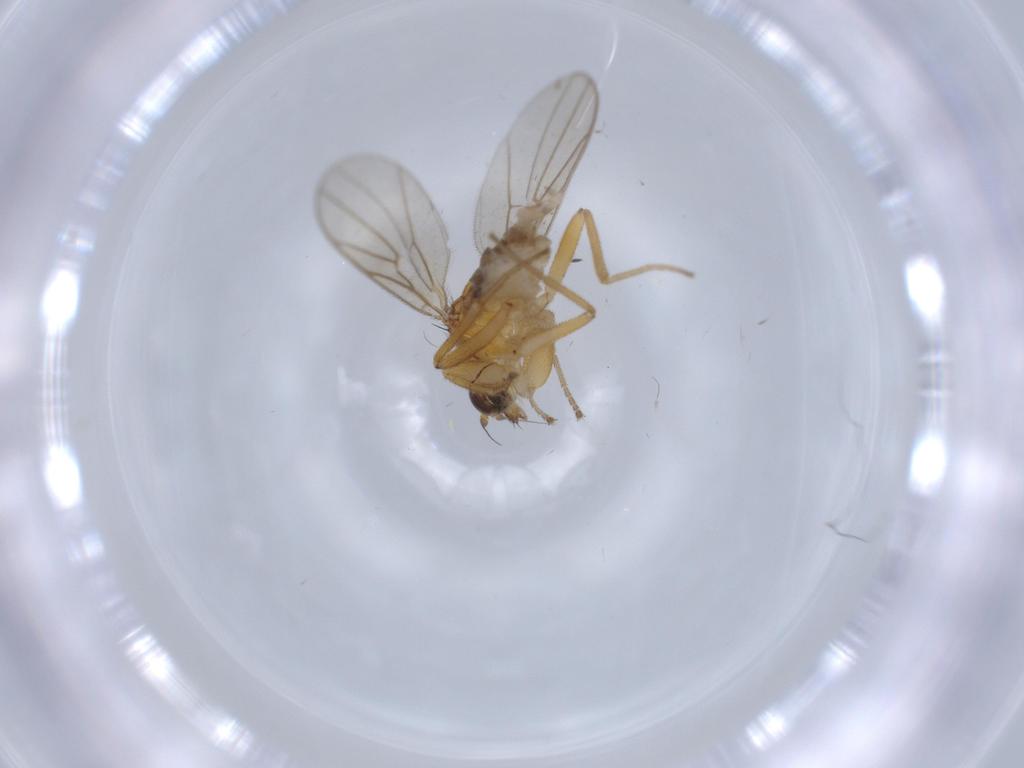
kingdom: Animalia
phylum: Arthropoda
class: Insecta
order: Diptera
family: Hybotidae
